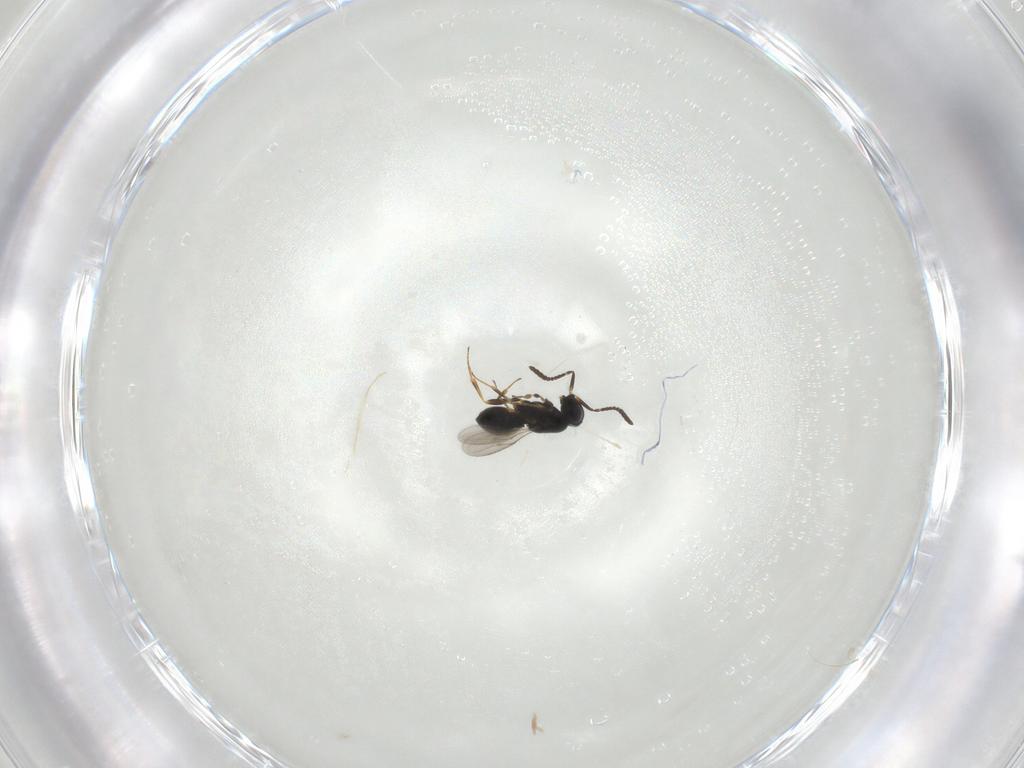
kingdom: Animalia
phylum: Arthropoda
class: Insecta
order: Hymenoptera
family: Scelionidae
